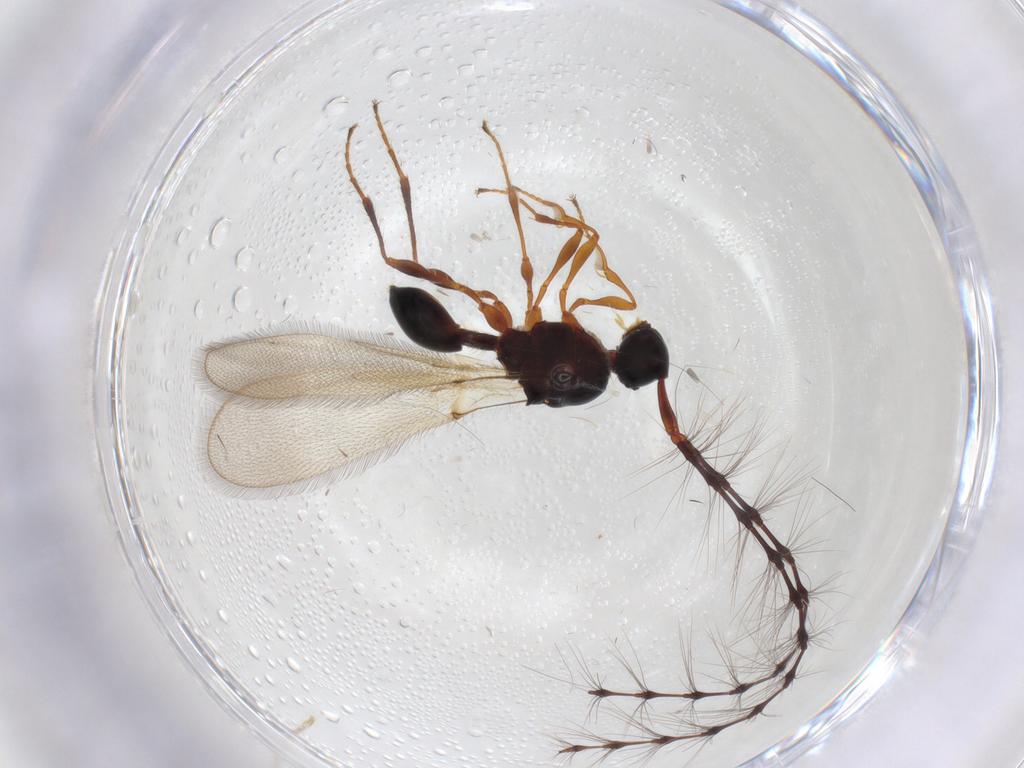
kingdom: Animalia
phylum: Arthropoda
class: Insecta
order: Hymenoptera
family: Diapriidae
